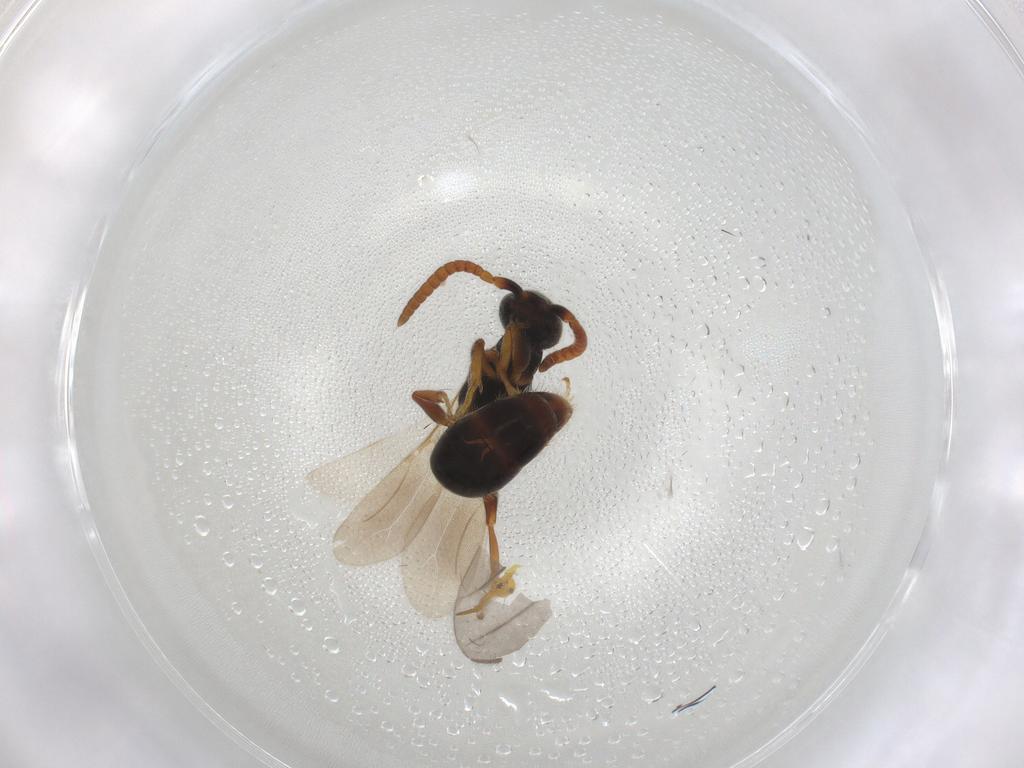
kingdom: Animalia
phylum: Arthropoda
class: Insecta
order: Hymenoptera
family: Bethylidae
